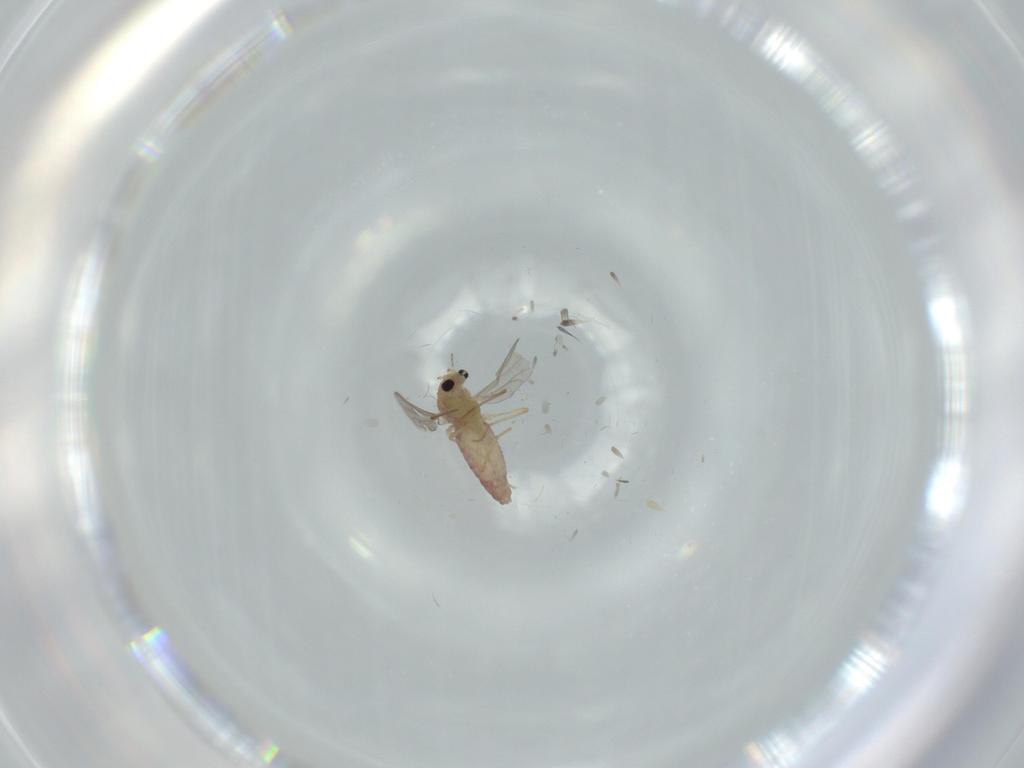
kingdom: Animalia
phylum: Arthropoda
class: Insecta
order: Diptera
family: Chironomidae
